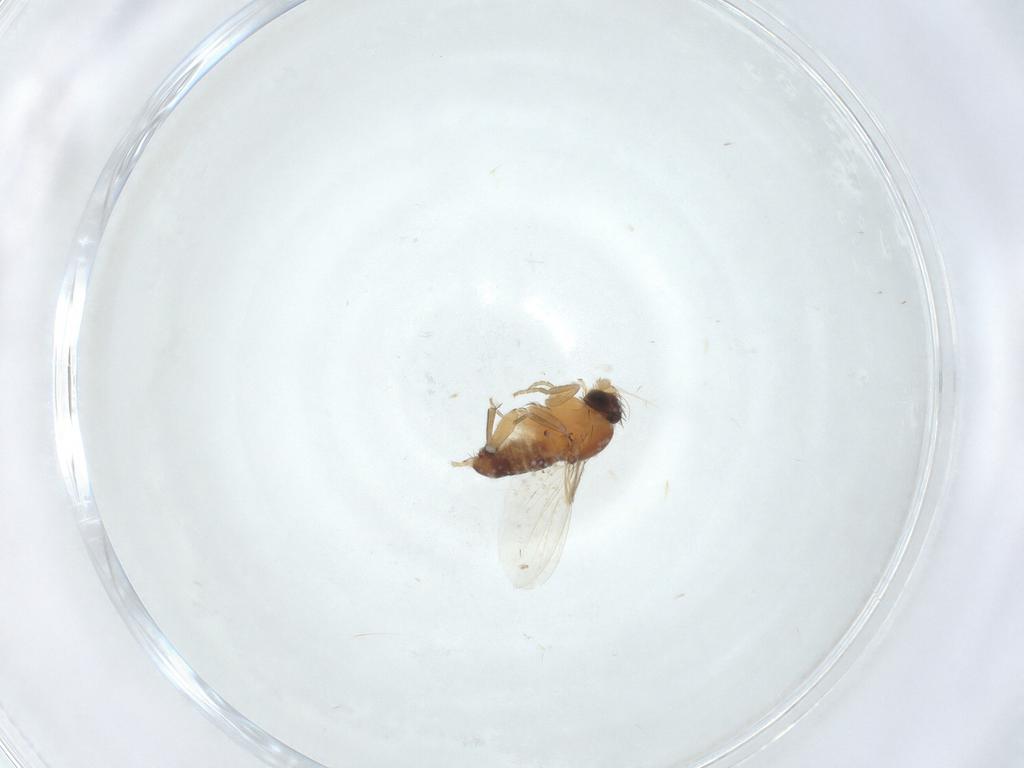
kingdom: Animalia
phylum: Arthropoda
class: Insecta
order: Diptera
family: Phoridae
